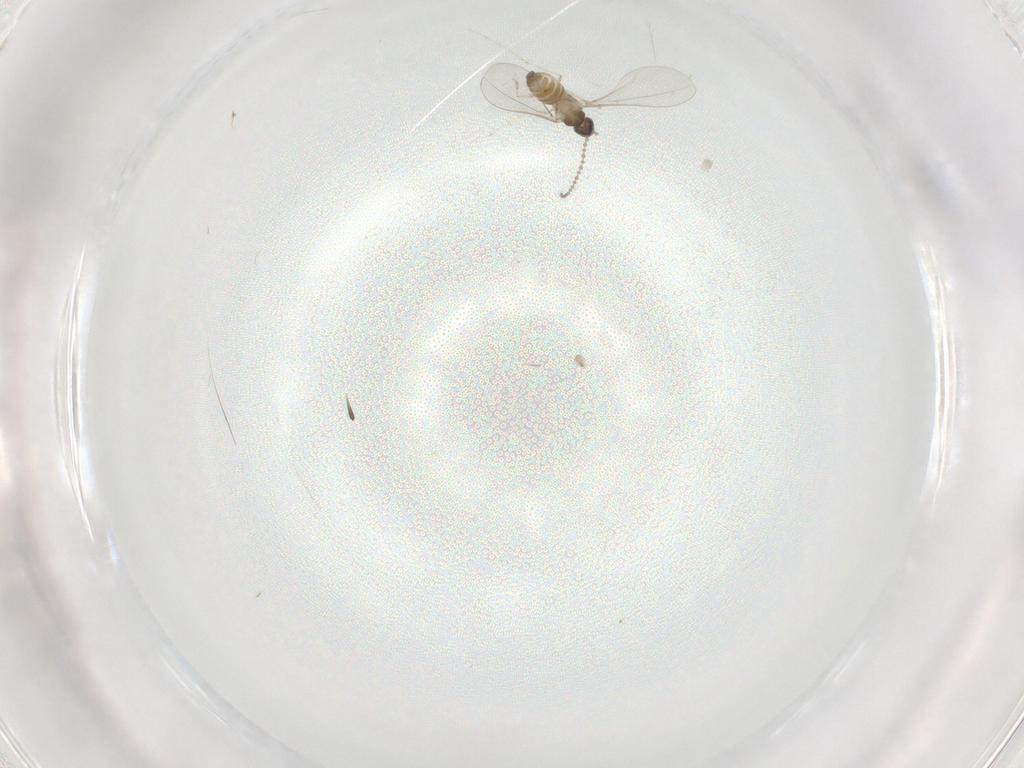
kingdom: Animalia
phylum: Arthropoda
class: Insecta
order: Diptera
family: Cecidomyiidae
